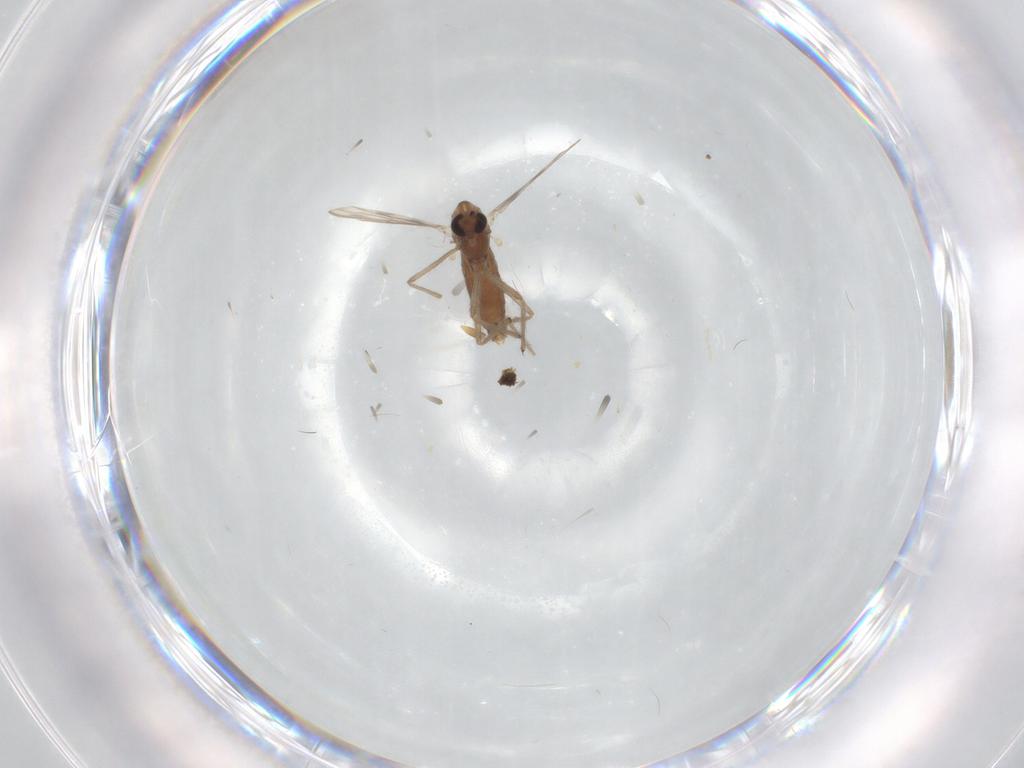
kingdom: Animalia
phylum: Arthropoda
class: Insecta
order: Diptera
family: Chironomidae
